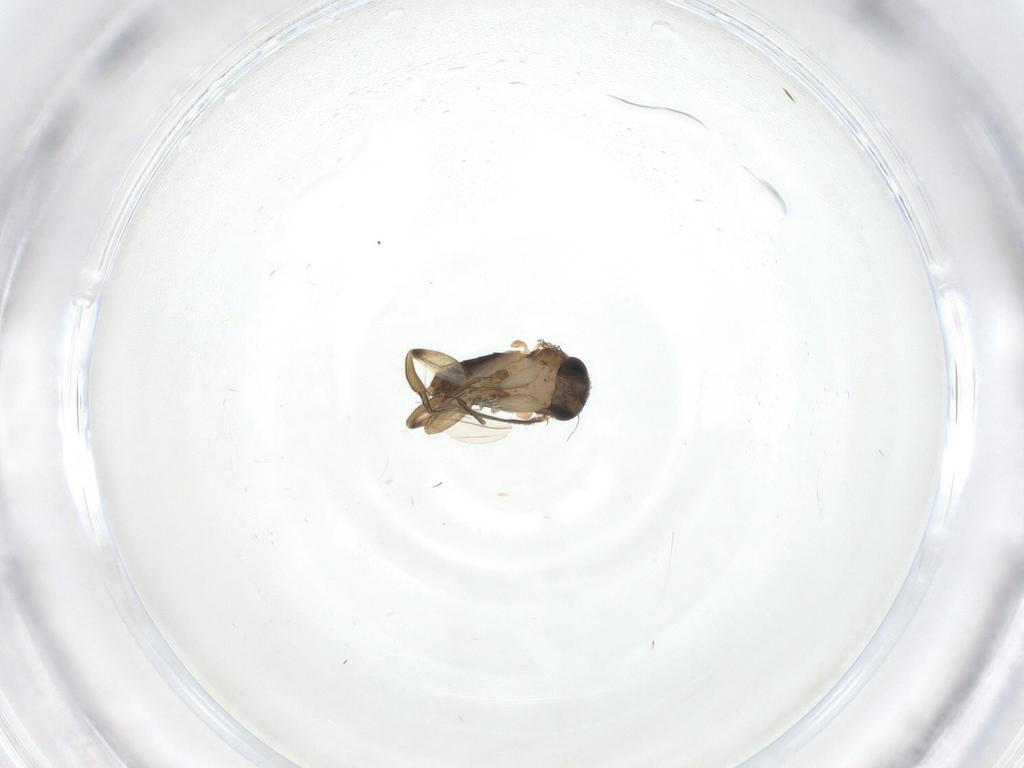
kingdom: Animalia
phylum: Arthropoda
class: Insecta
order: Diptera
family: Phoridae
